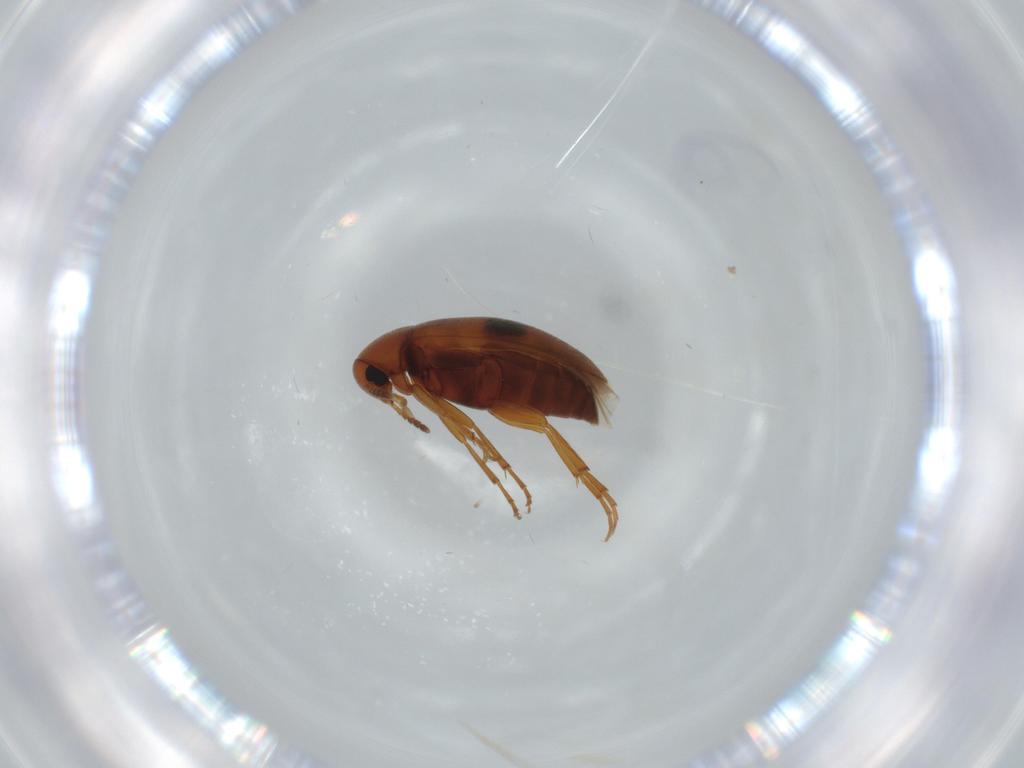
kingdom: Animalia
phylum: Arthropoda
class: Insecta
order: Coleoptera
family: Scraptiidae
